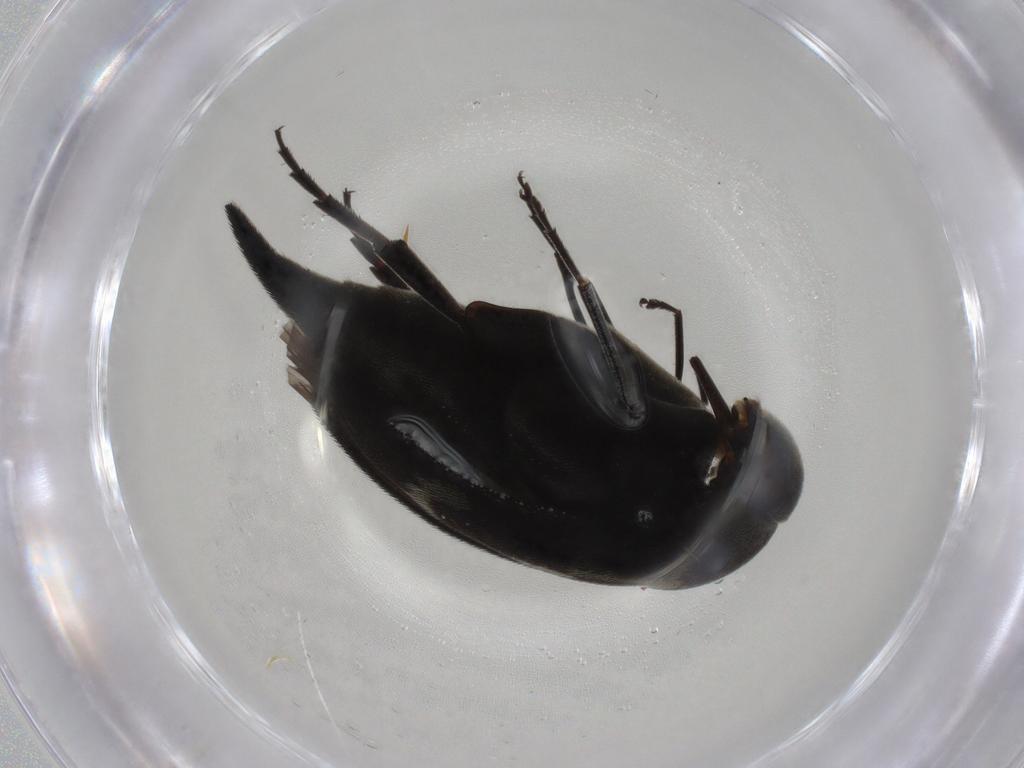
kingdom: Animalia
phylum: Arthropoda
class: Insecta
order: Coleoptera
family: Mordellidae
